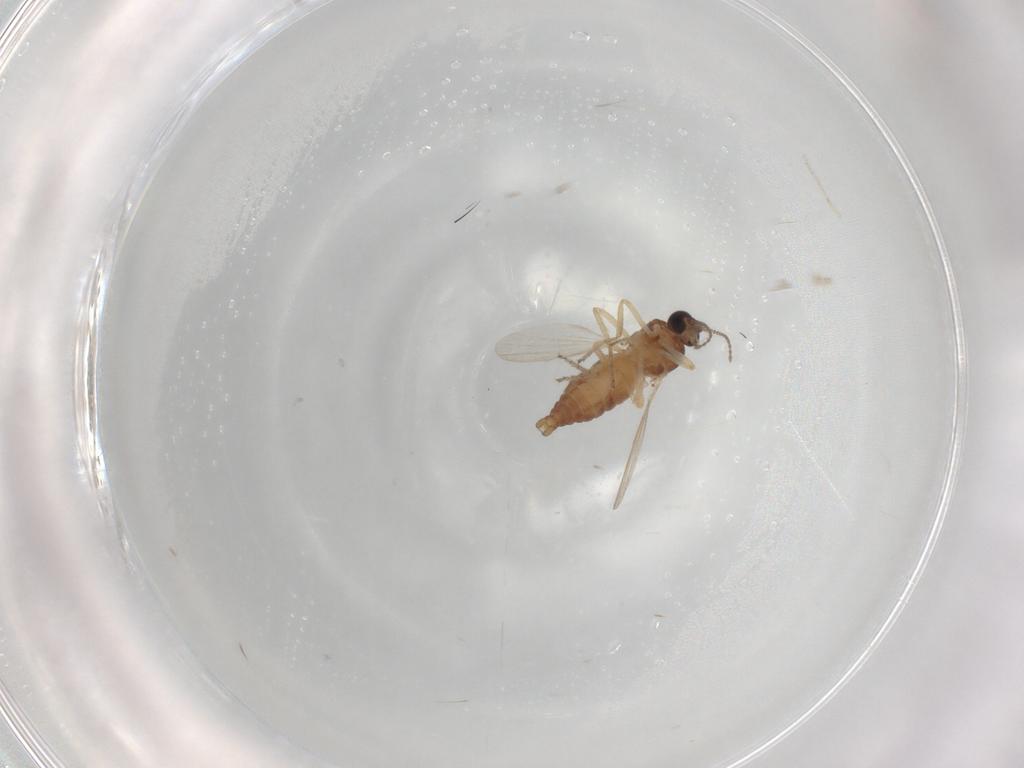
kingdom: Animalia
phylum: Arthropoda
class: Insecta
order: Diptera
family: Ceratopogonidae
